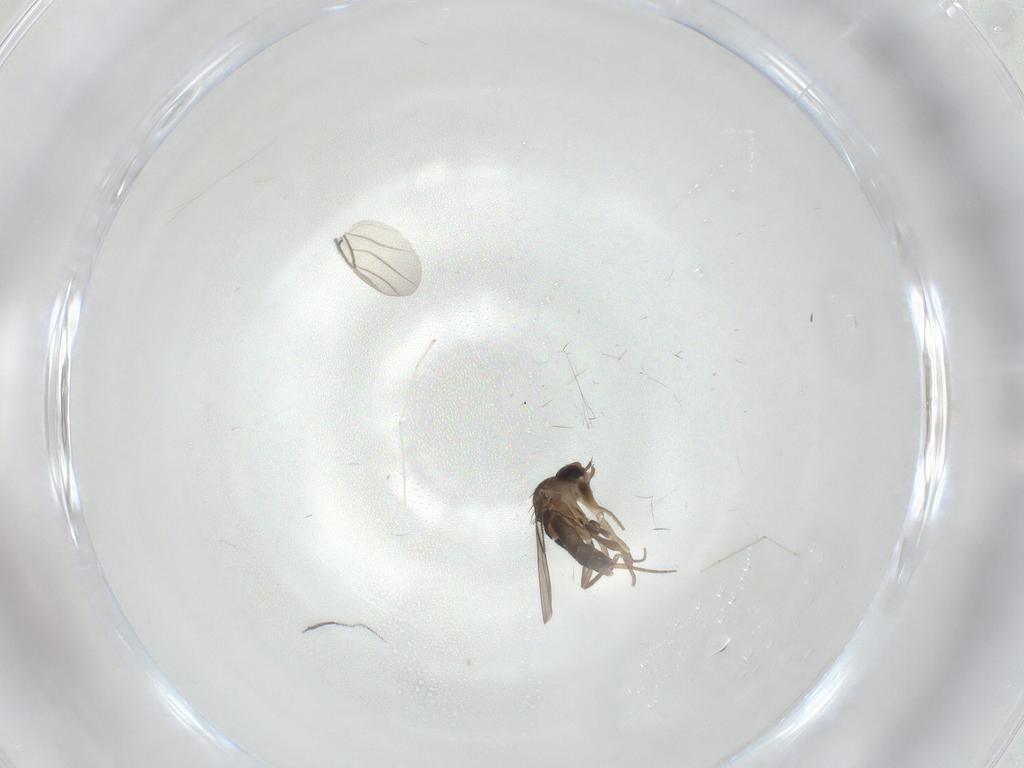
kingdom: Animalia
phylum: Arthropoda
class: Insecta
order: Diptera
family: Phoridae
